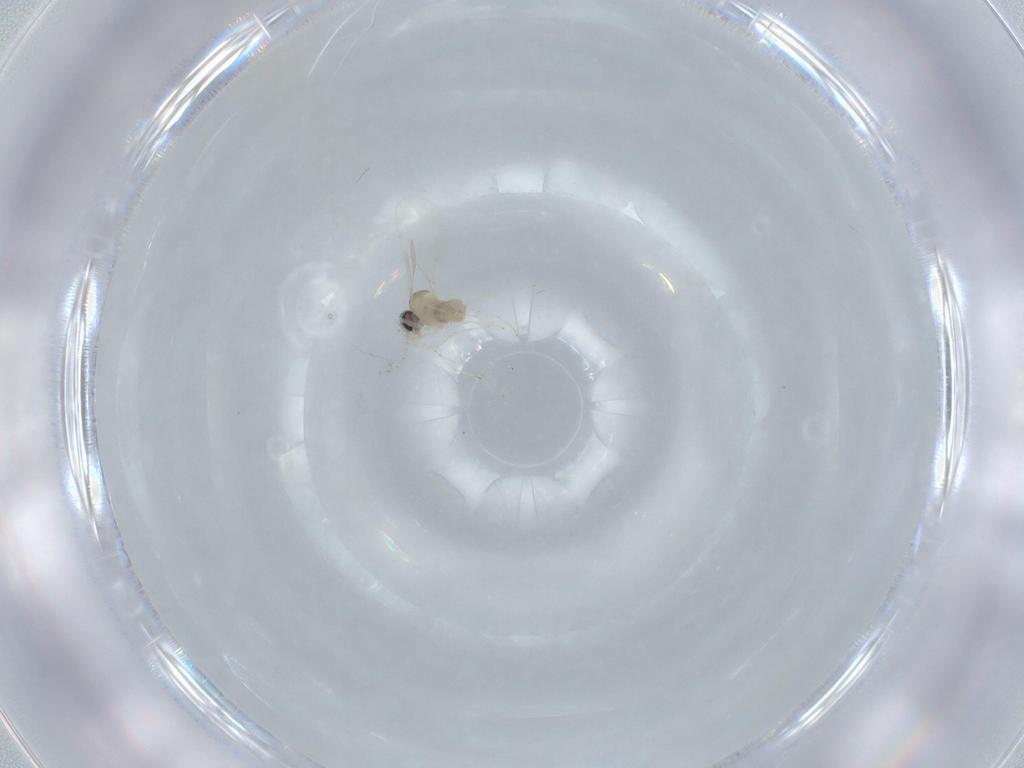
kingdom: Animalia
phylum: Arthropoda
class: Insecta
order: Diptera
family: Cecidomyiidae
